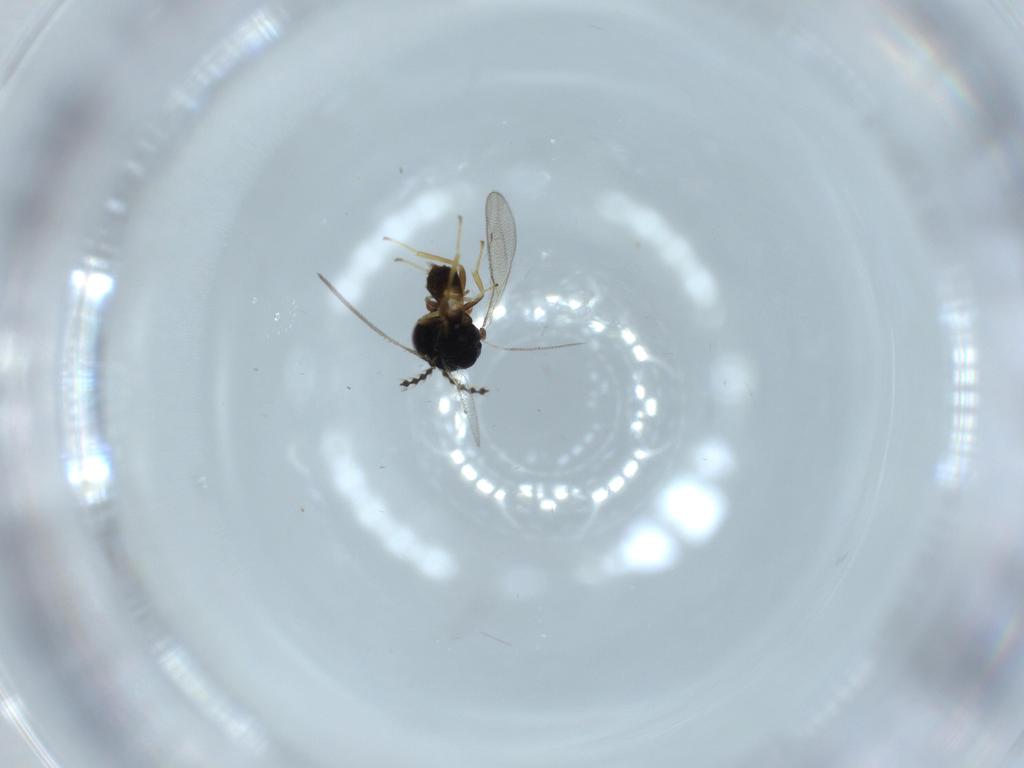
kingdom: Animalia
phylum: Arthropoda
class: Insecta
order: Hymenoptera
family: Pteromalidae
